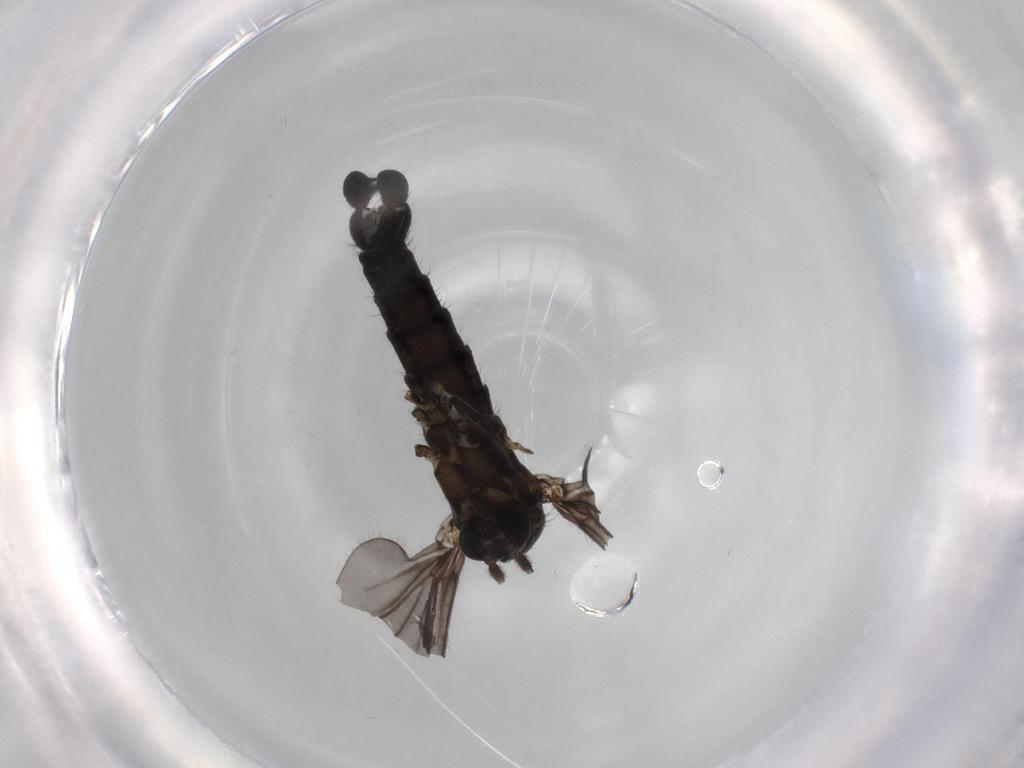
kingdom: Animalia
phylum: Arthropoda
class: Insecta
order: Diptera
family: Sciaridae
